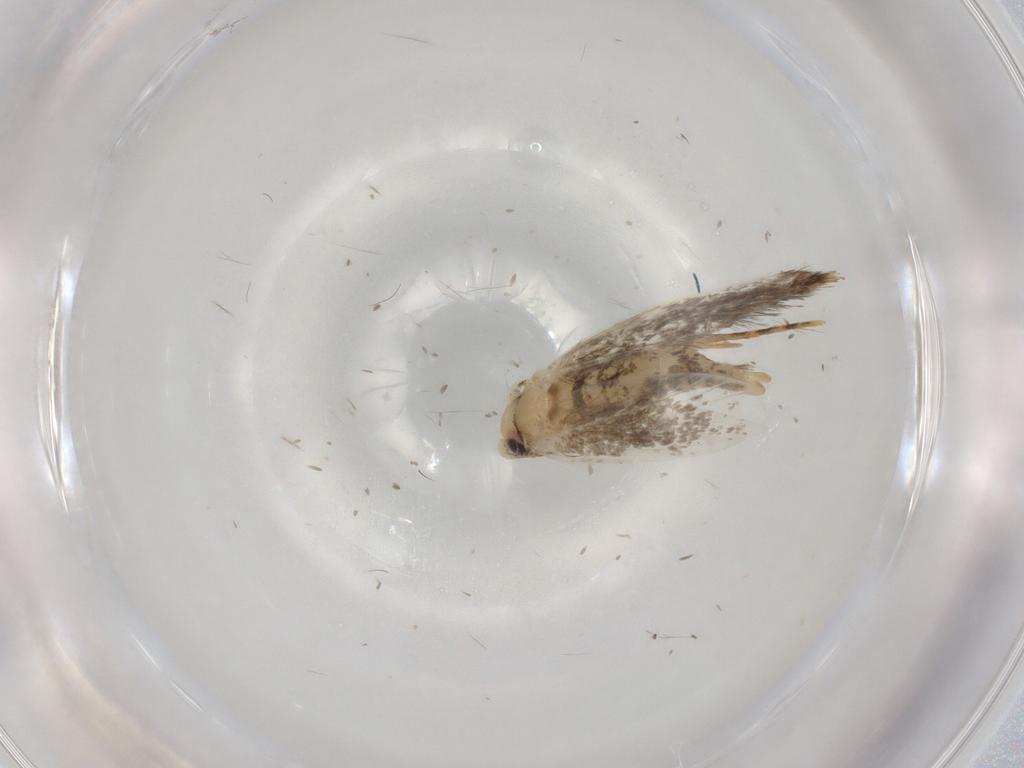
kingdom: Animalia
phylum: Arthropoda
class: Insecta
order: Lepidoptera
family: Tineidae
